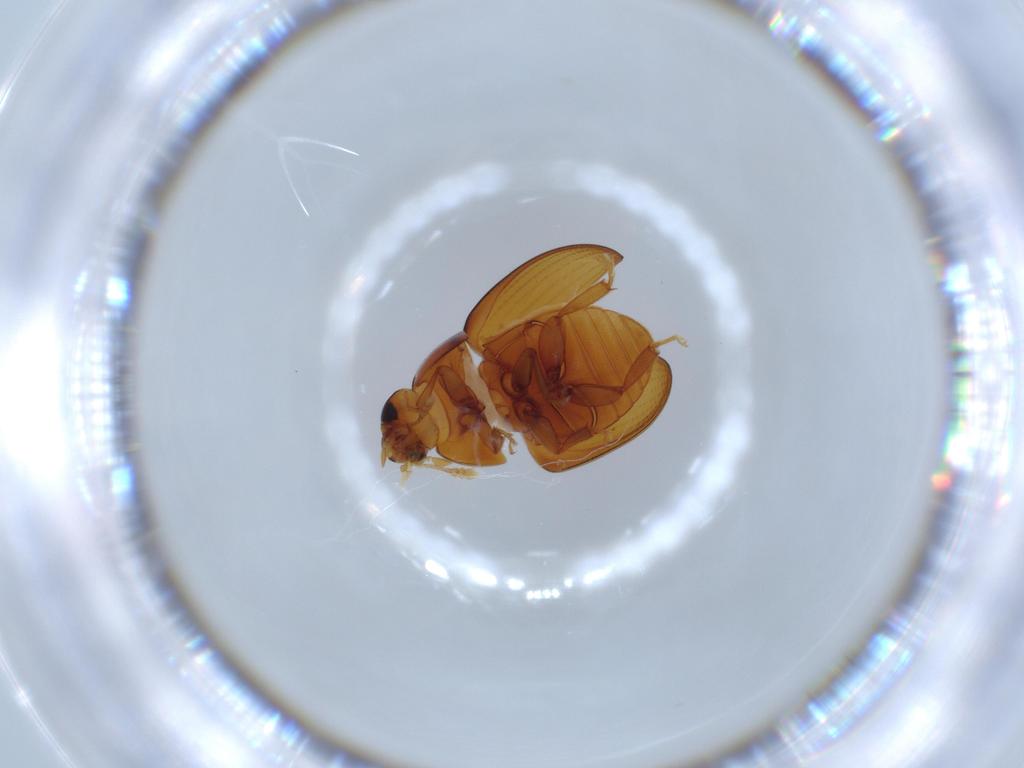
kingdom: Animalia
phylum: Arthropoda
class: Insecta
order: Coleoptera
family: Phalacridae
